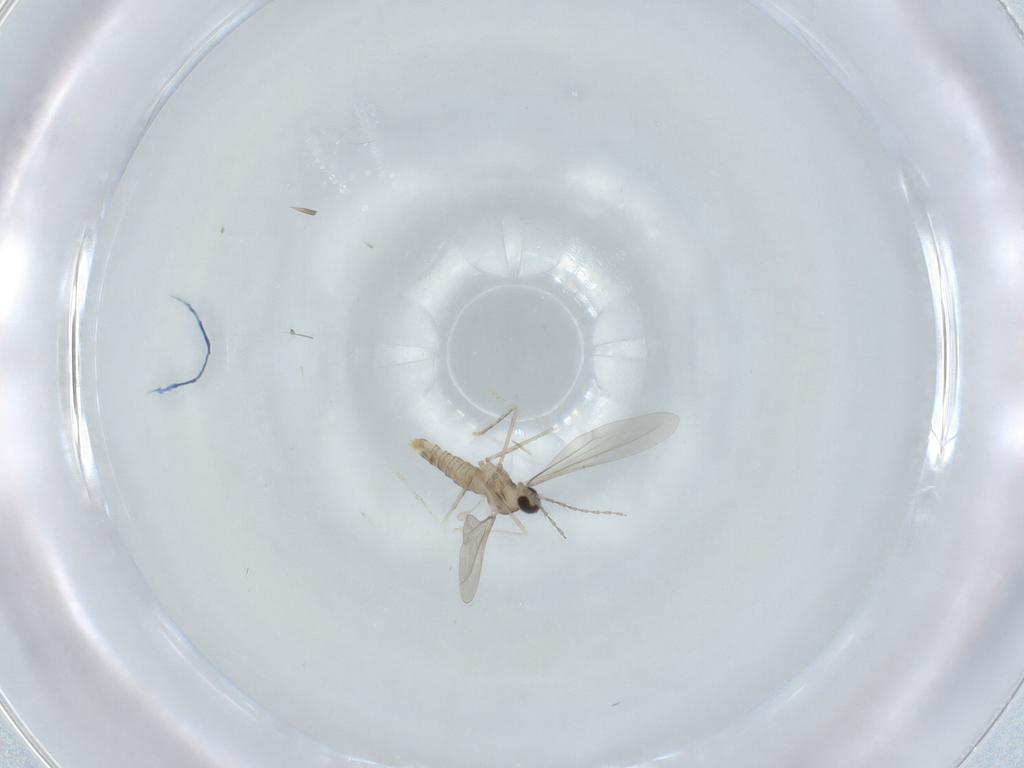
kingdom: Animalia
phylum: Arthropoda
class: Insecta
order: Diptera
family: Cecidomyiidae
